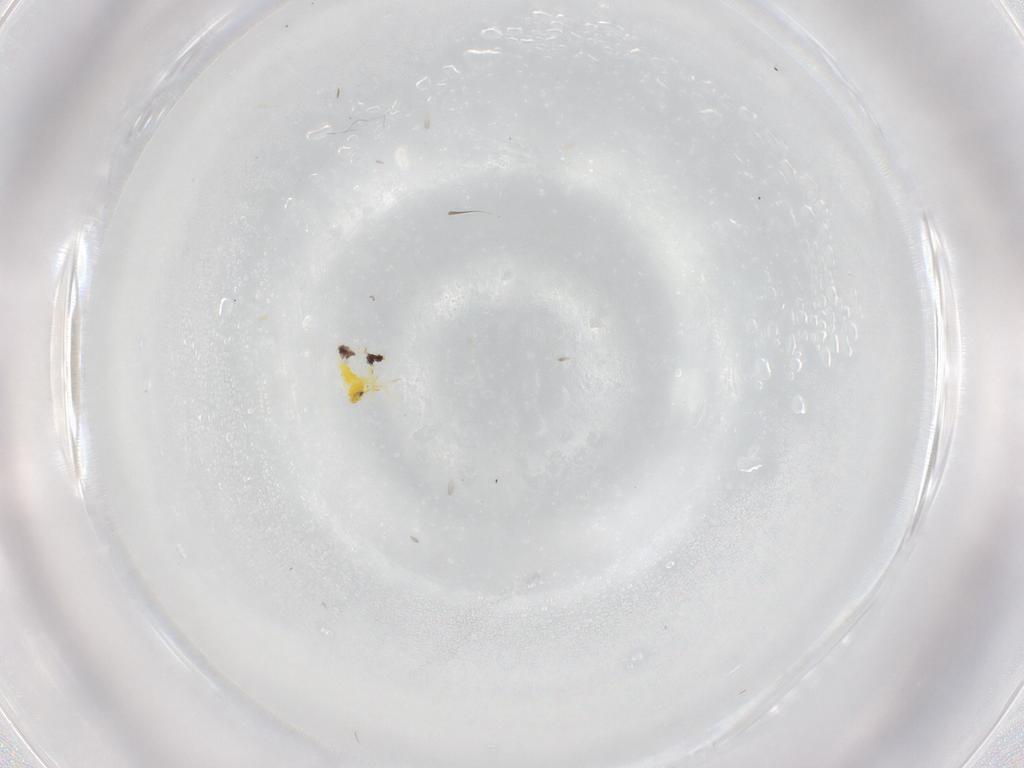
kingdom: Animalia
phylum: Arthropoda
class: Insecta
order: Hemiptera
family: Aleyrodidae
